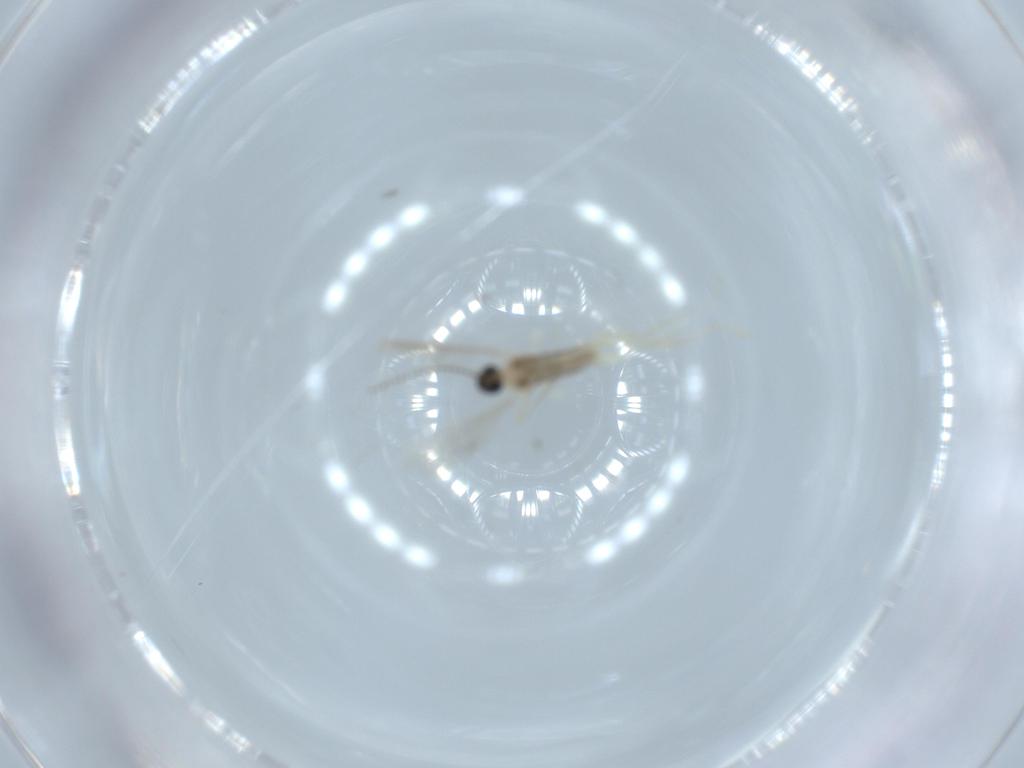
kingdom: Animalia
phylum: Arthropoda
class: Insecta
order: Diptera
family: Cecidomyiidae
